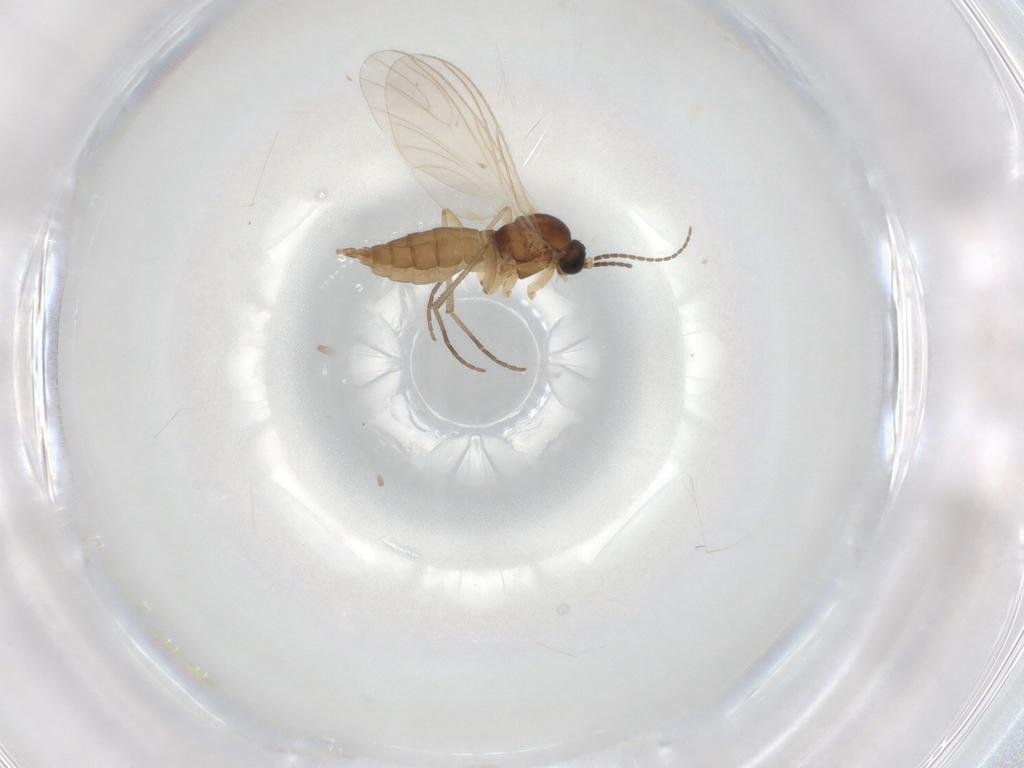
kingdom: Animalia
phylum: Arthropoda
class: Insecta
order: Diptera
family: Sciaridae
